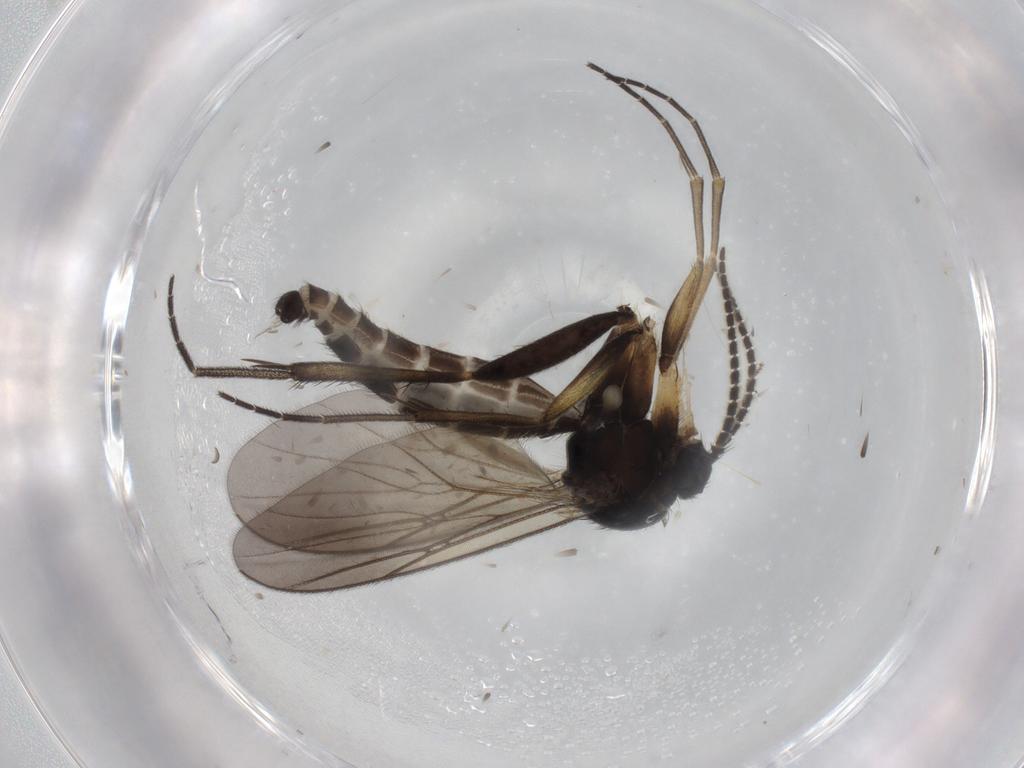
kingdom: Animalia
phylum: Arthropoda
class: Insecta
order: Diptera
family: Mycetophilidae
